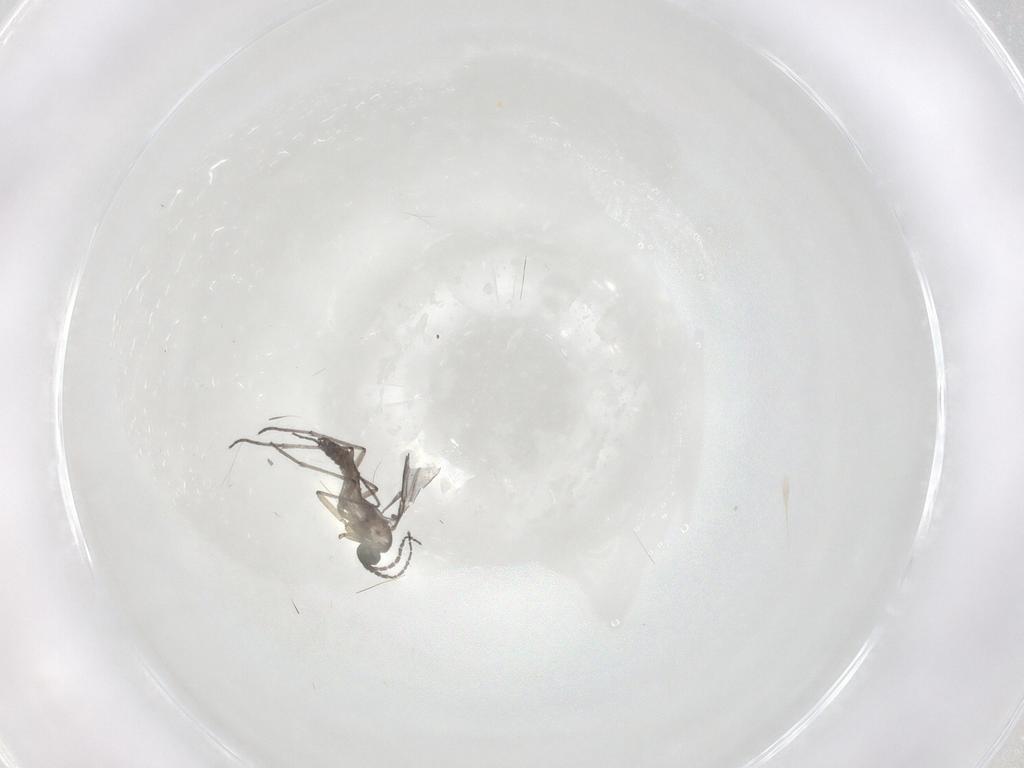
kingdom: Animalia
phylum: Arthropoda
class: Insecta
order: Diptera
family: Sciaridae
